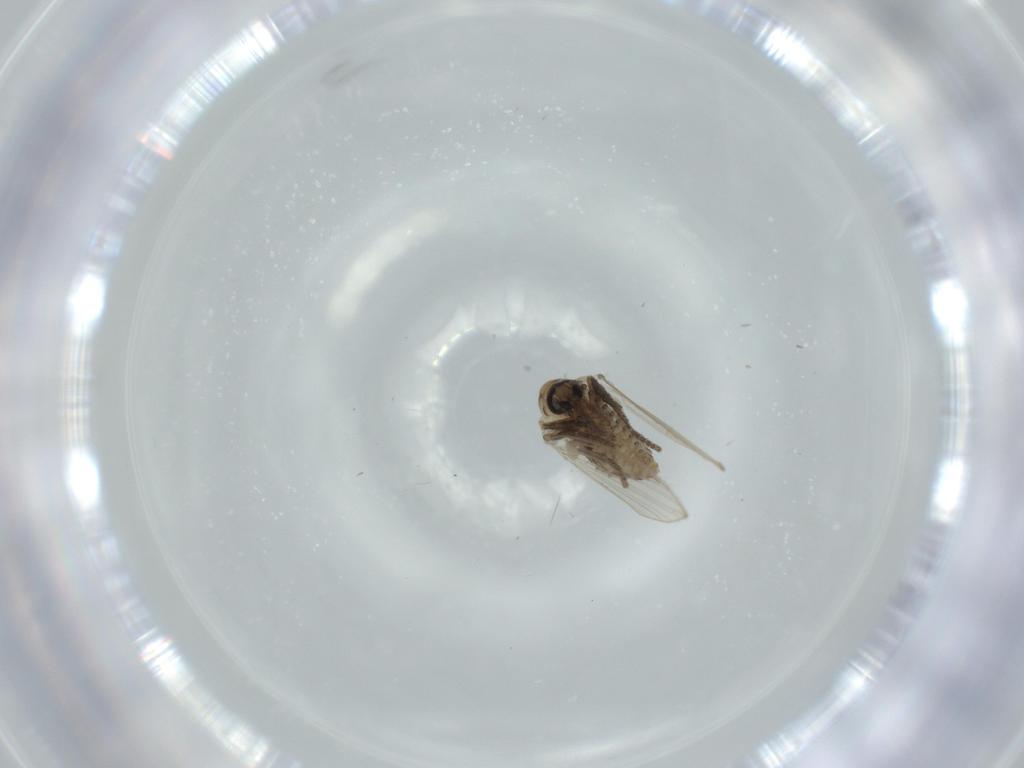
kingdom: Animalia
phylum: Arthropoda
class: Insecta
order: Diptera
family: Psychodidae
